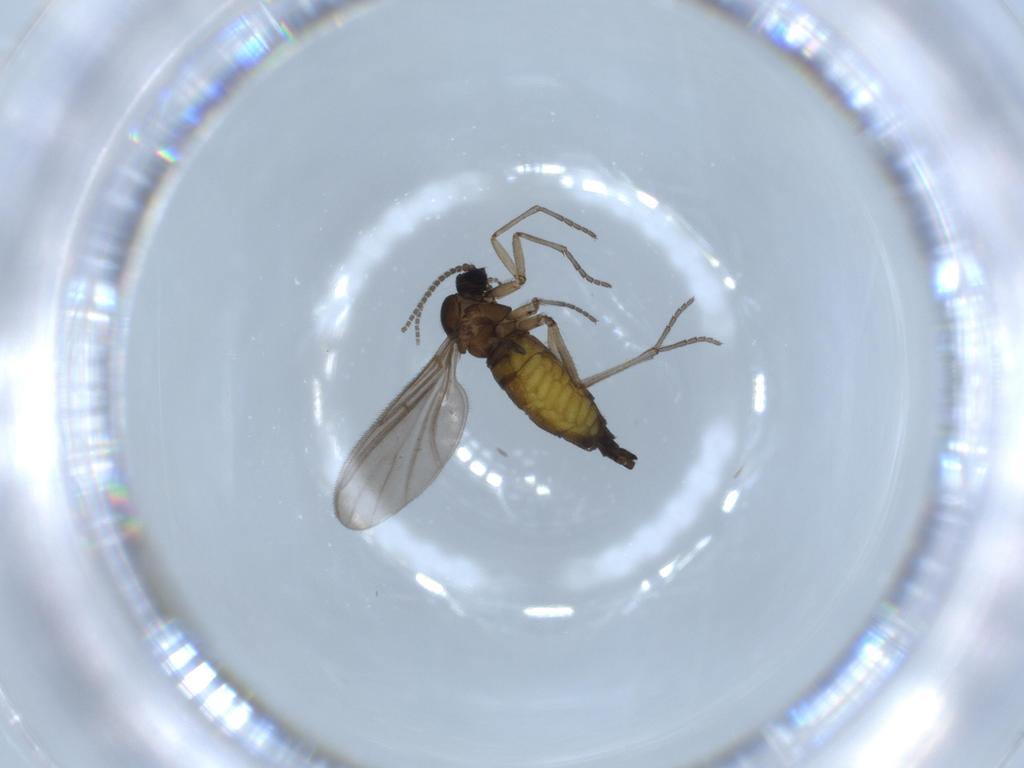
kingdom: Animalia
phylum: Arthropoda
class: Insecta
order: Diptera
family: Sciaridae
